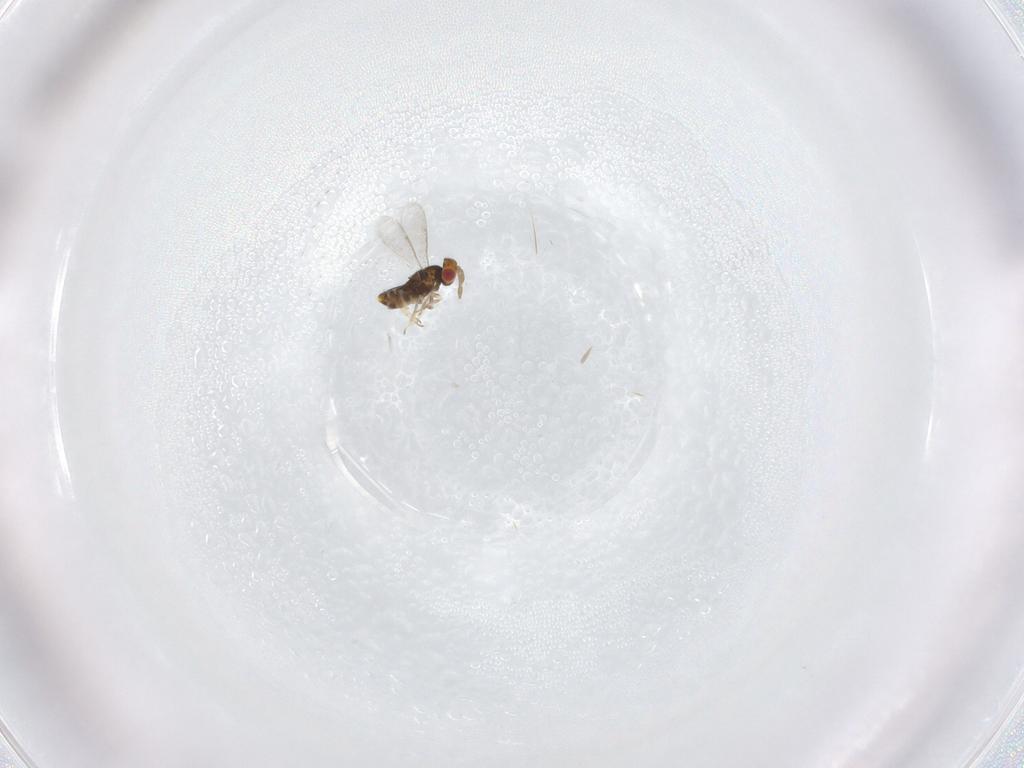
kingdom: Animalia
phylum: Arthropoda
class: Insecta
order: Hymenoptera
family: Aphelinidae
